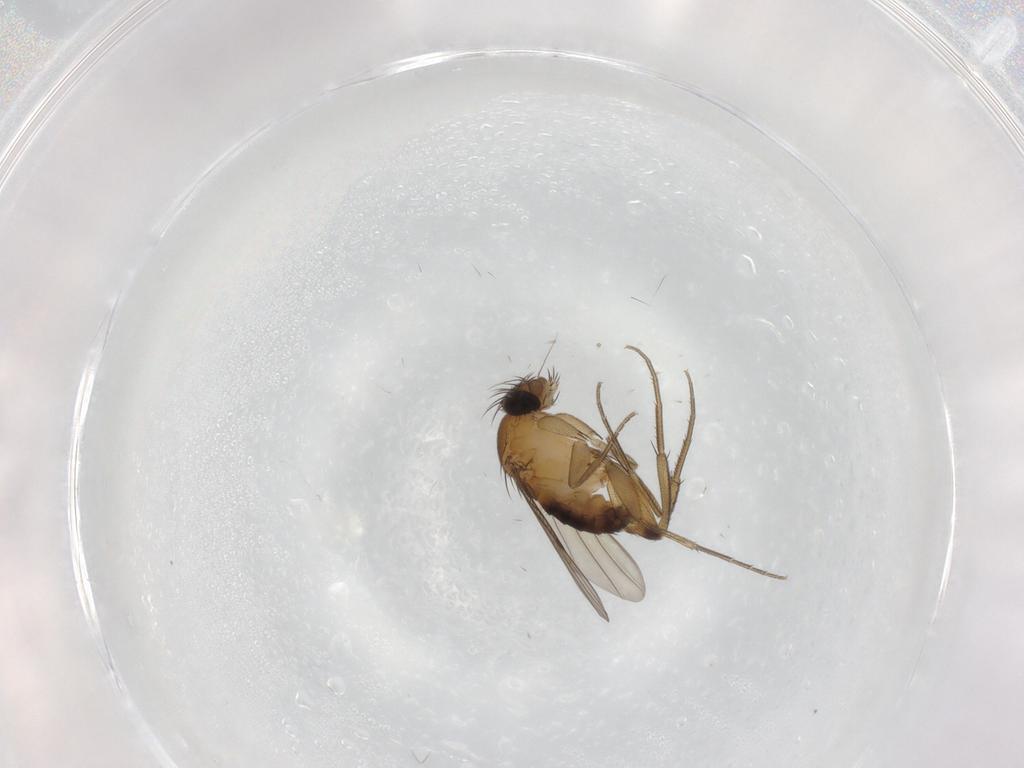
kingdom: Animalia
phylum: Arthropoda
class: Insecta
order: Diptera
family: Phoridae
